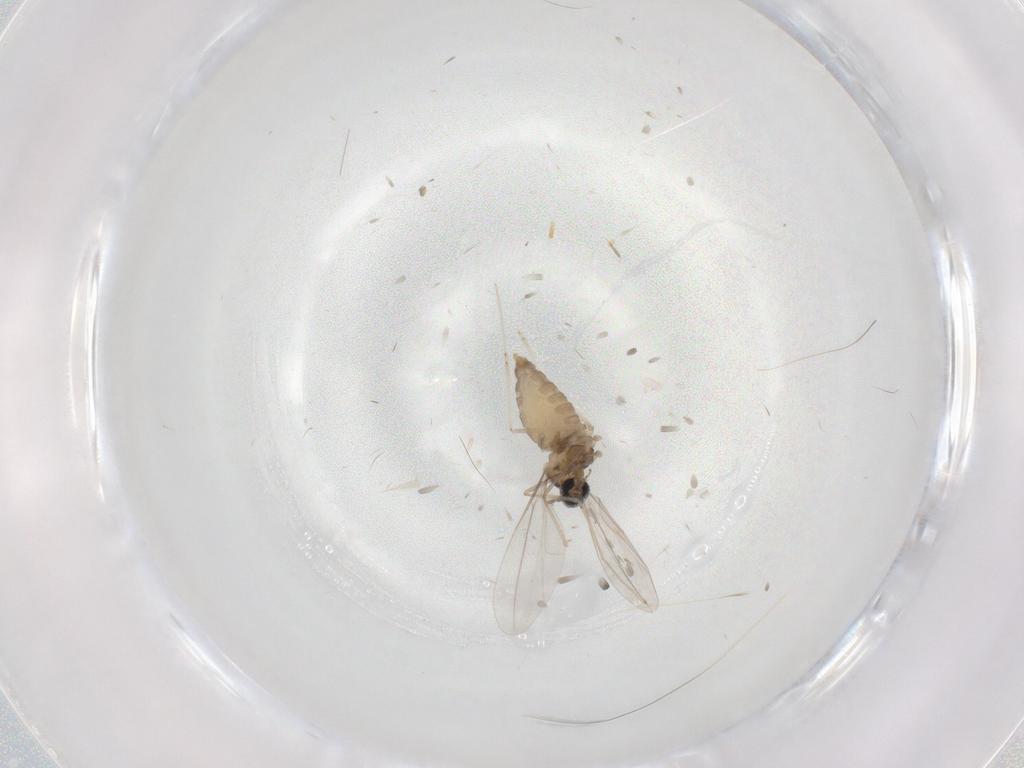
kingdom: Animalia
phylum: Arthropoda
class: Insecta
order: Diptera
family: Ceratopogonidae
